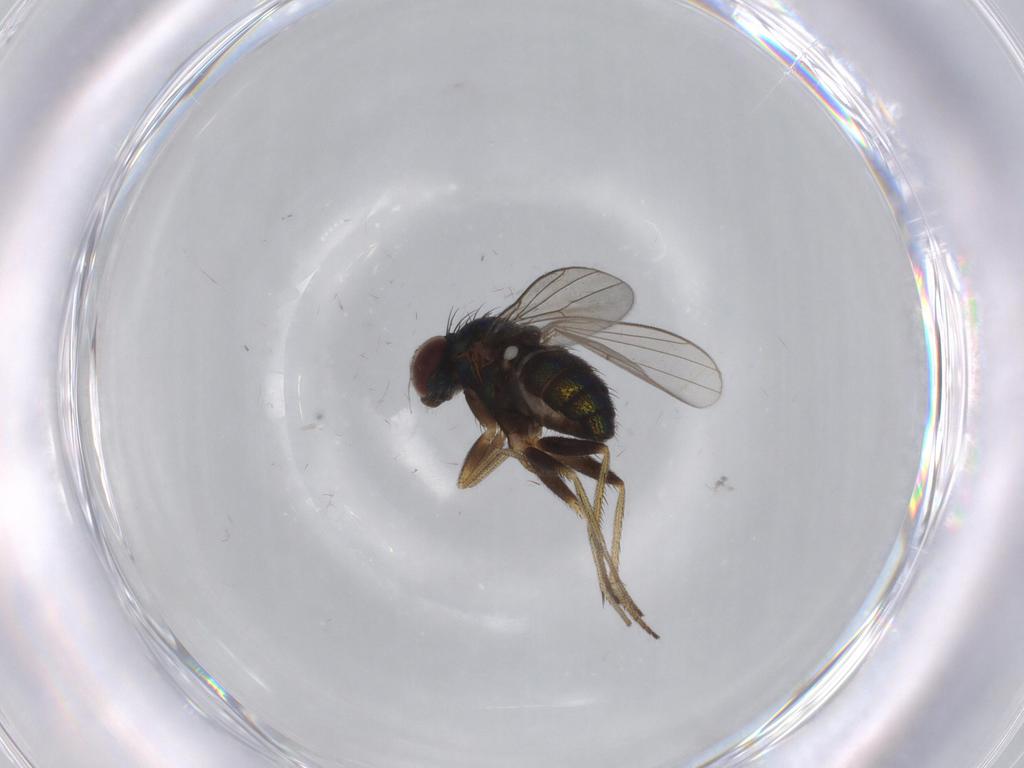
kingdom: Animalia
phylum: Arthropoda
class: Insecta
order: Diptera
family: Dolichopodidae
